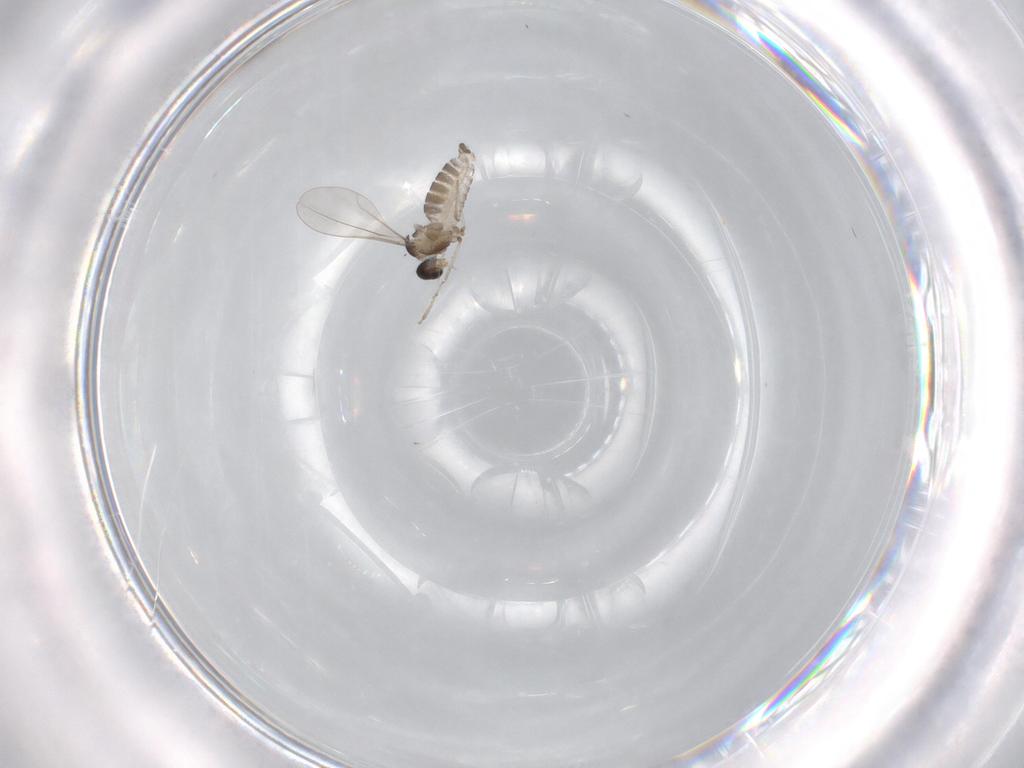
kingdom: Animalia
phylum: Arthropoda
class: Insecta
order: Diptera
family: Chironomidae
